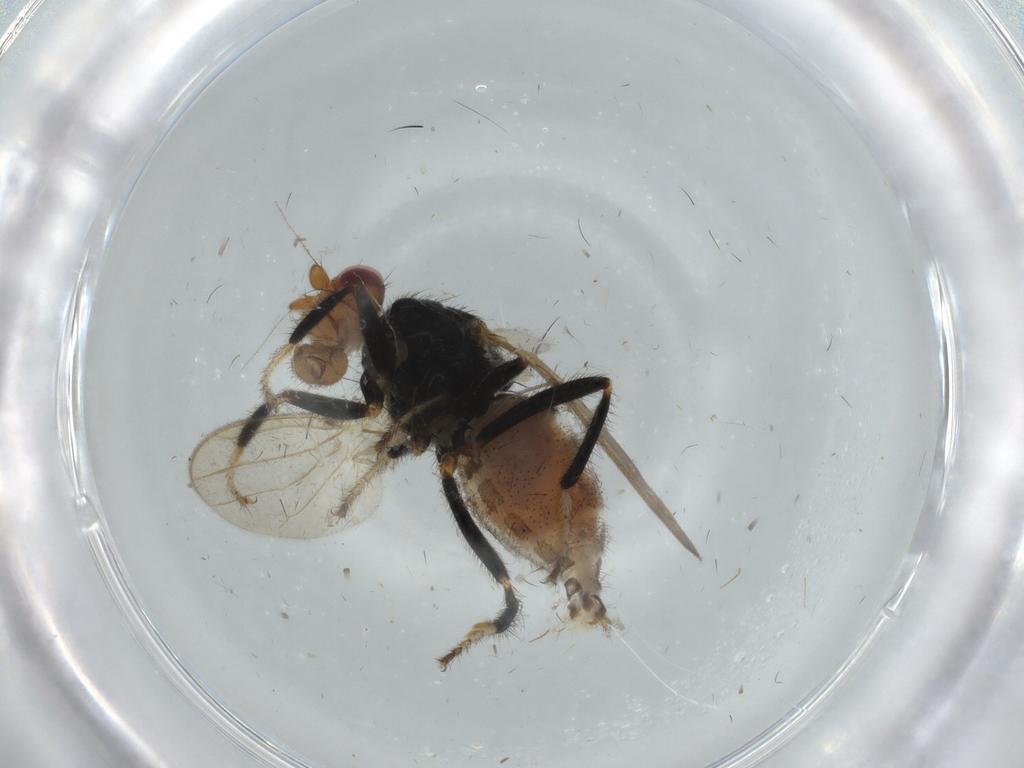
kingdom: Animalia
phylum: Arthropoda
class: Insecta
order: Diptera
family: Sphaeroceridae
